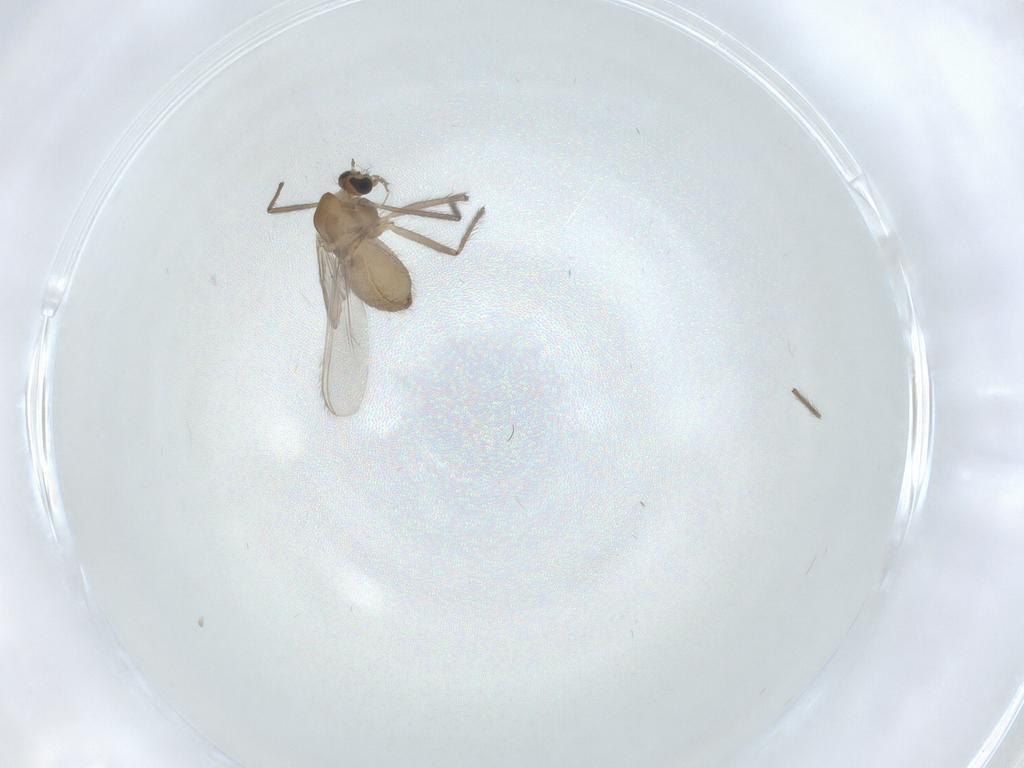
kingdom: Animalia
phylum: Arthropoda
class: Insecta
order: Diptera
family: Chironomidae
